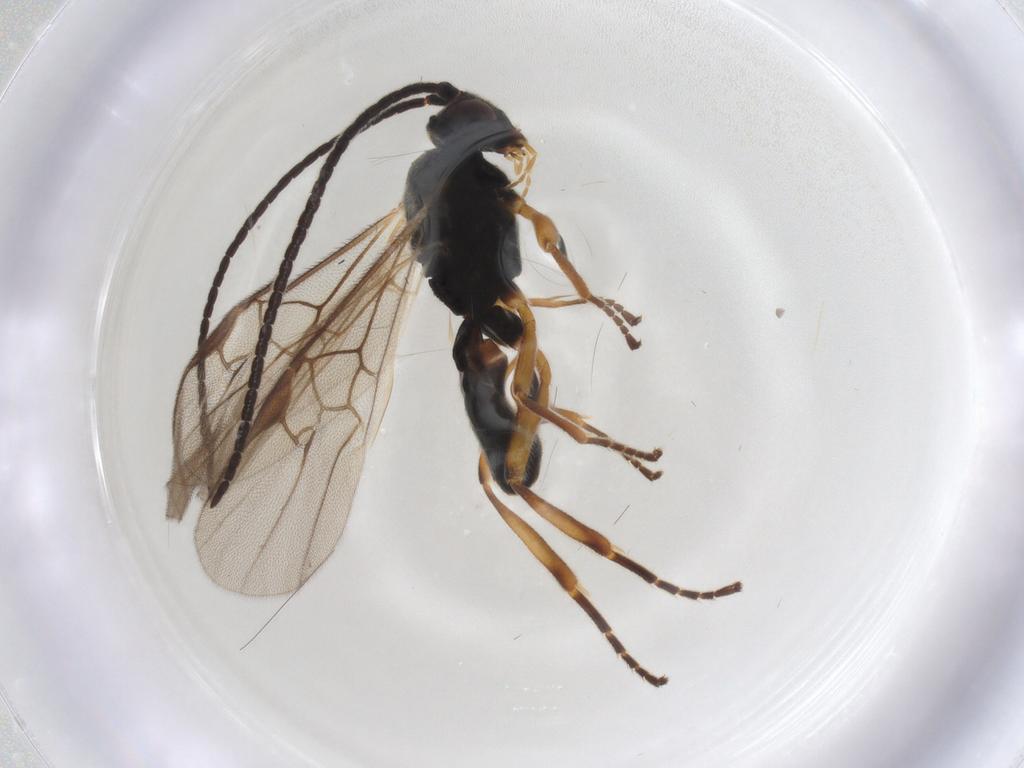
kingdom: Animalia
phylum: Arthropoda
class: Insecta
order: Hymenoptera
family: Braconidae
